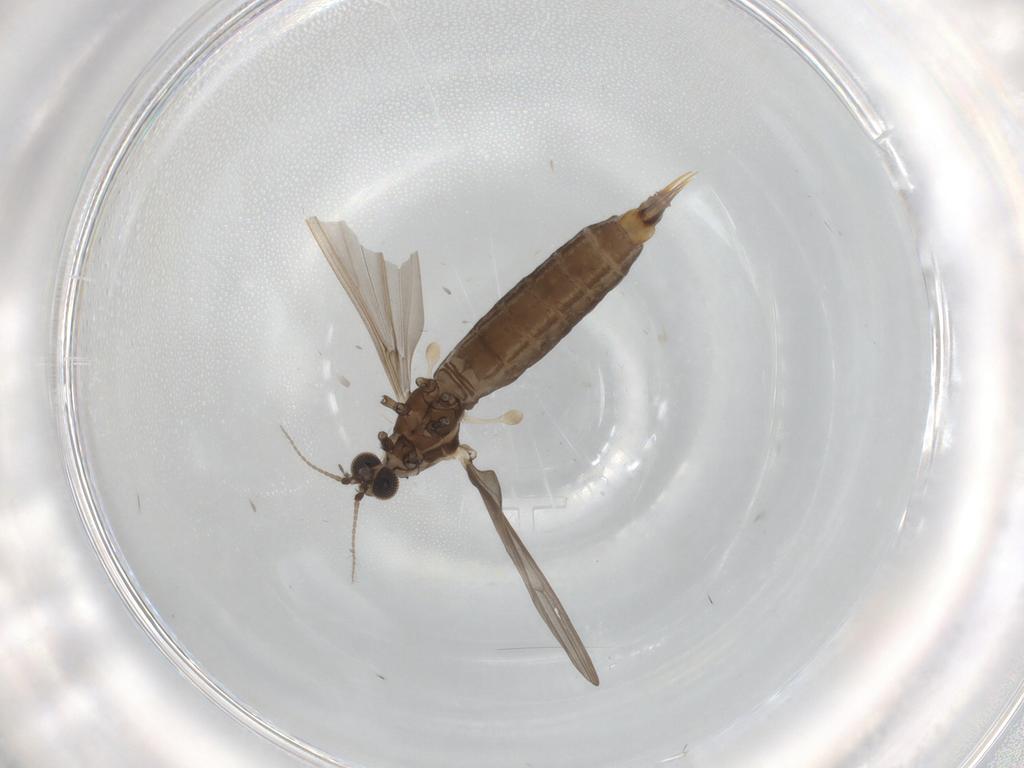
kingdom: Animalia
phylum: Arthropoda
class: Insecta
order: Diptera
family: Limoniidae
